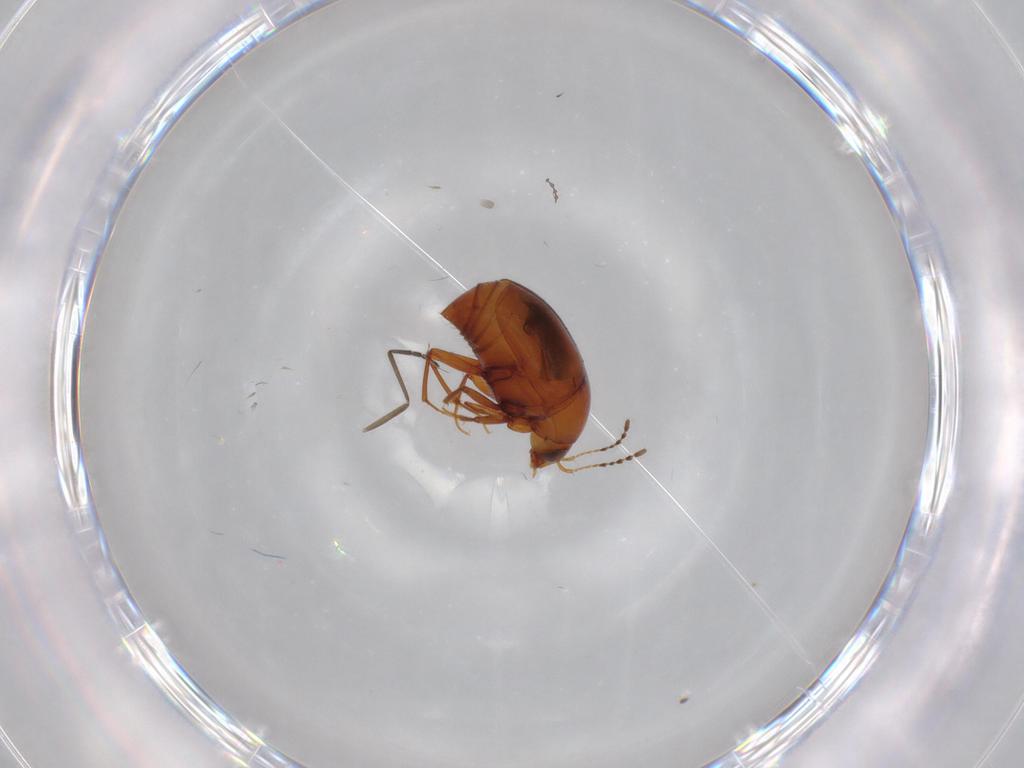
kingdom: Animalia
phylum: Arthropoda
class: Insecta
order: Coleoptera
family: Staphylinidae
